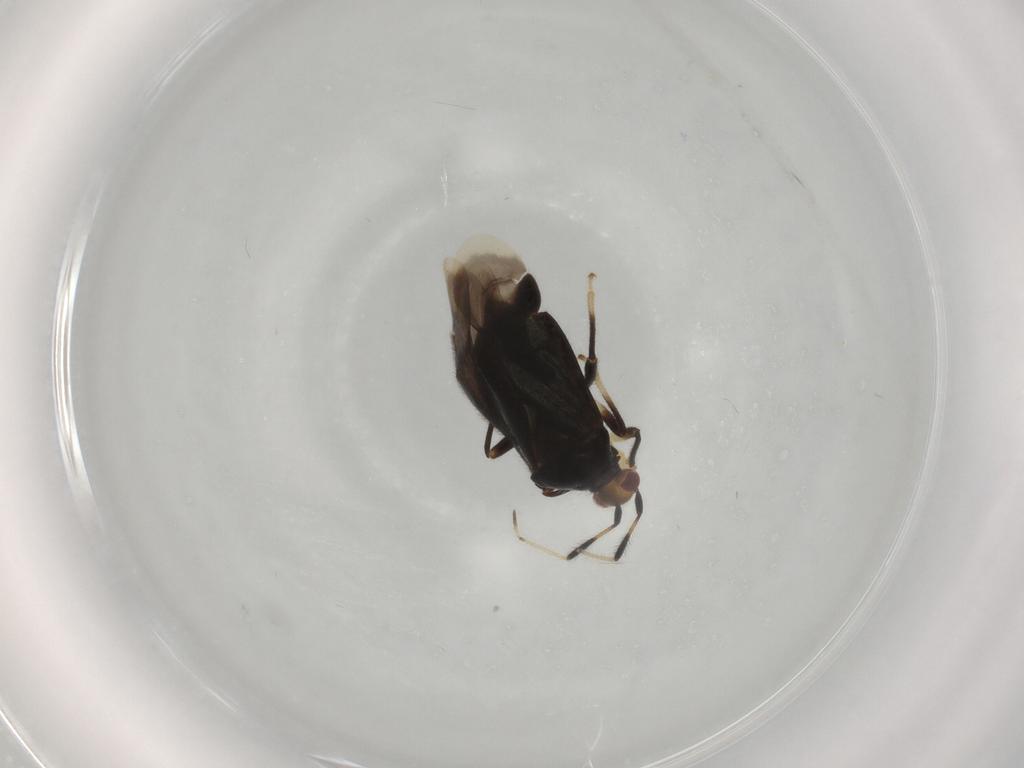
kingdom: Animalia
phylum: Arthropoda
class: Insecta
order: Hemiptera
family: Miridae
